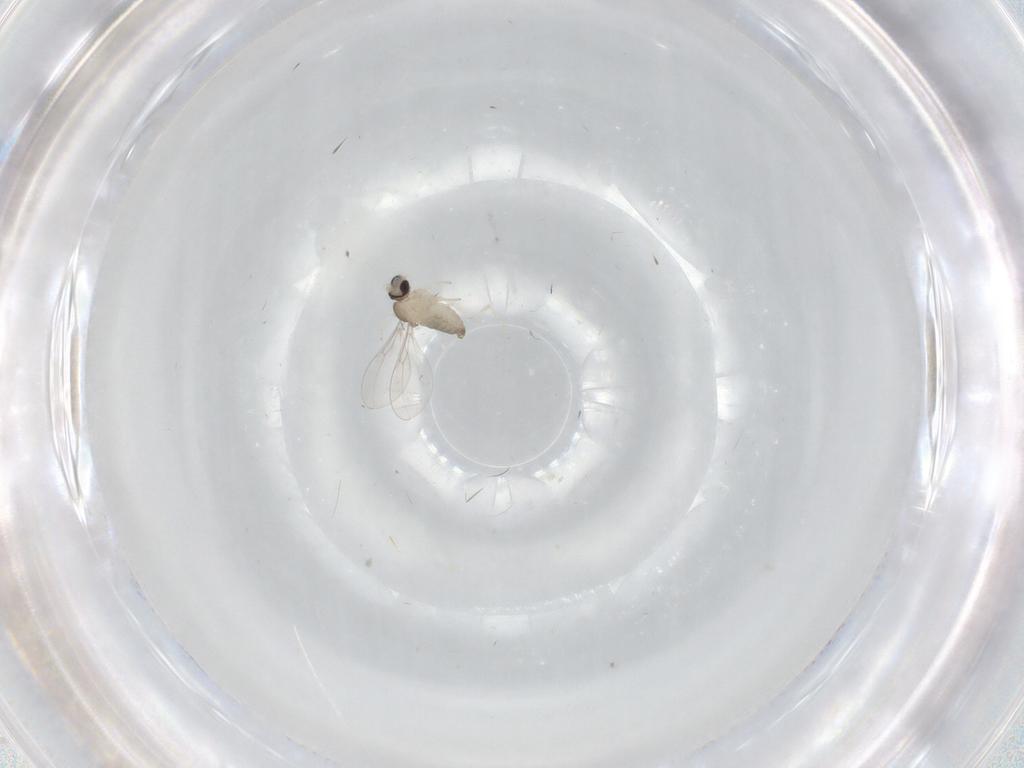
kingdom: Animalia
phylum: Arthropoda
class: Insecta
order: Diptera
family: Cecidomyiidae
